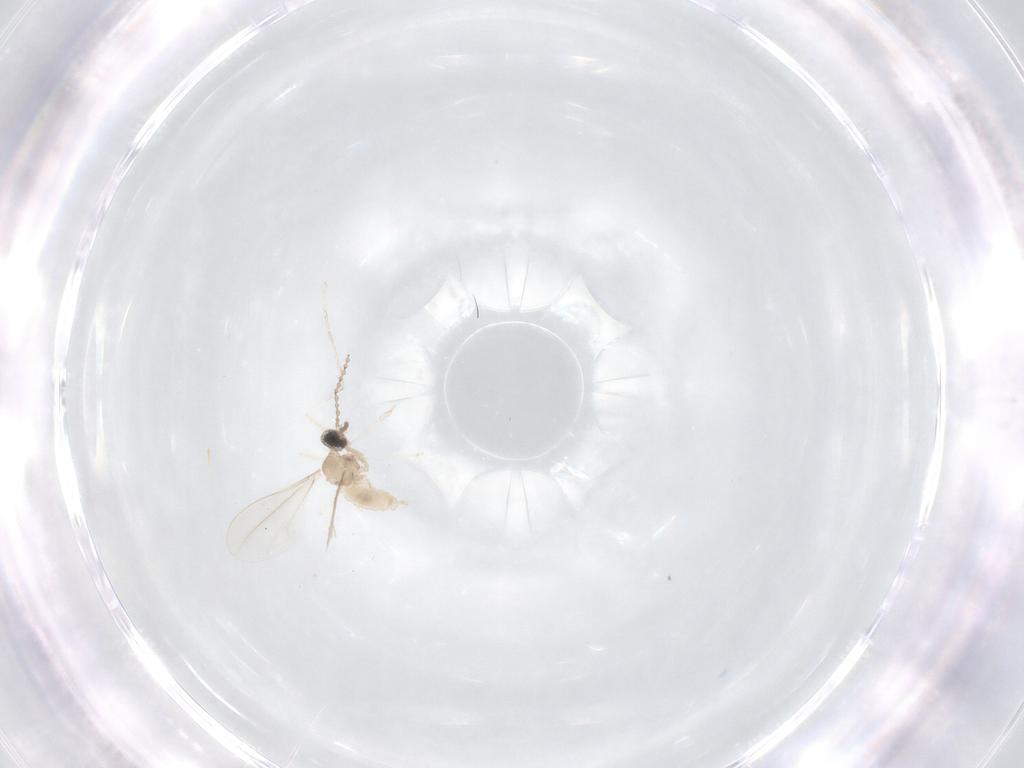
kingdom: Animalia
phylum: Arthropoda
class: Insecta
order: Diptera
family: Cecidomyiidae
